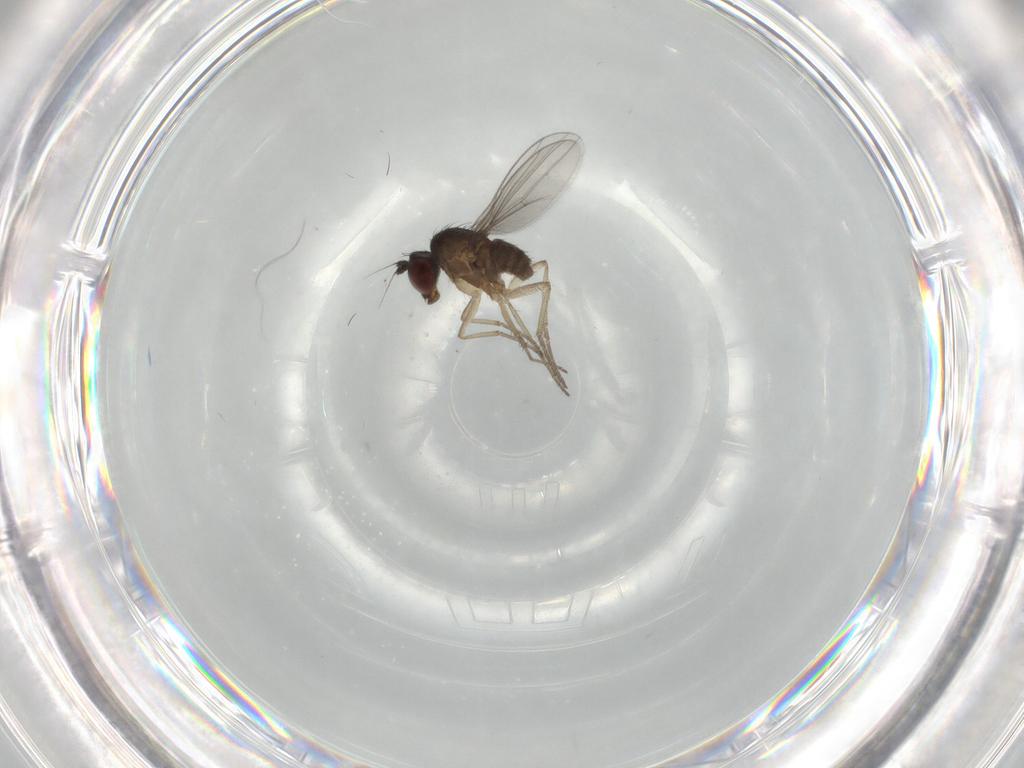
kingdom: Animalia
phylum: Arthropoda
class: Insecta
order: Diptera
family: Dolichopodidae
